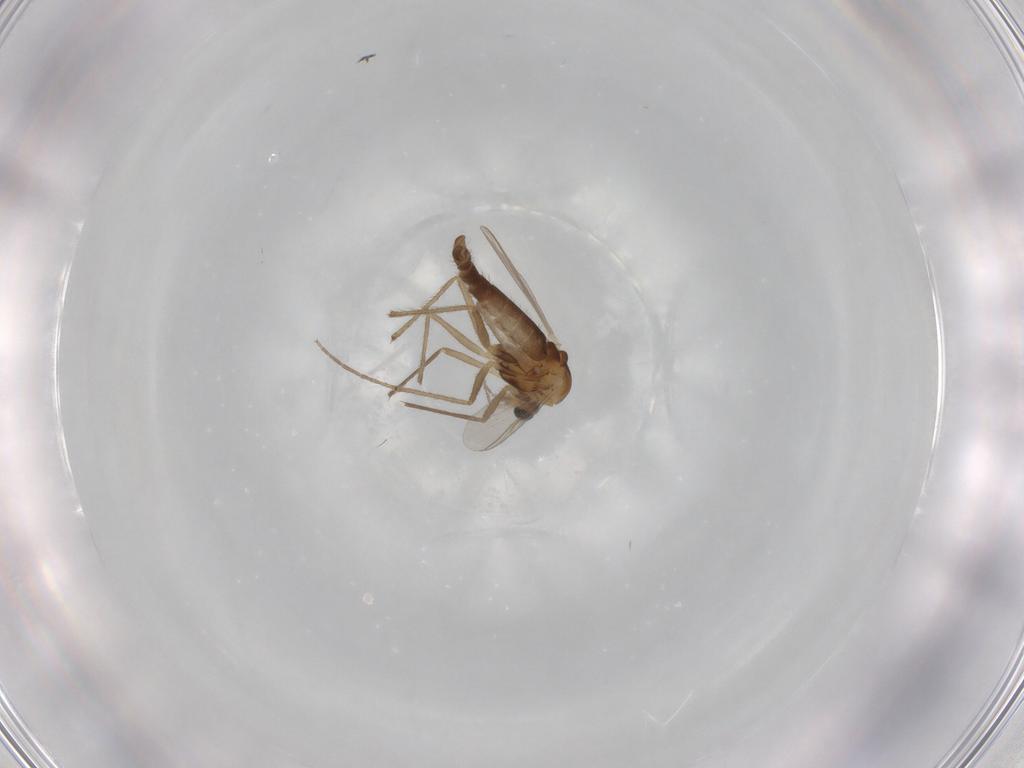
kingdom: Animalia
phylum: Arthropoda
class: Insecta
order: Diptera
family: Chironomidae
